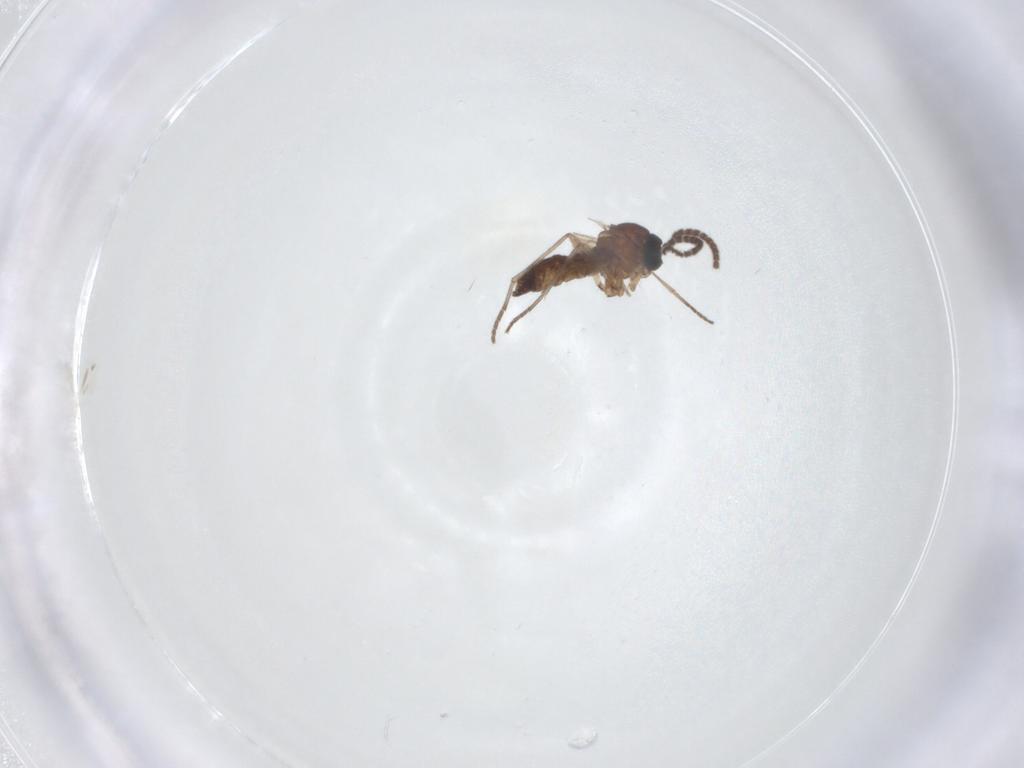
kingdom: Animalia
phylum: Arthropoda
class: Insecta
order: Diptera
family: Sciaridae
